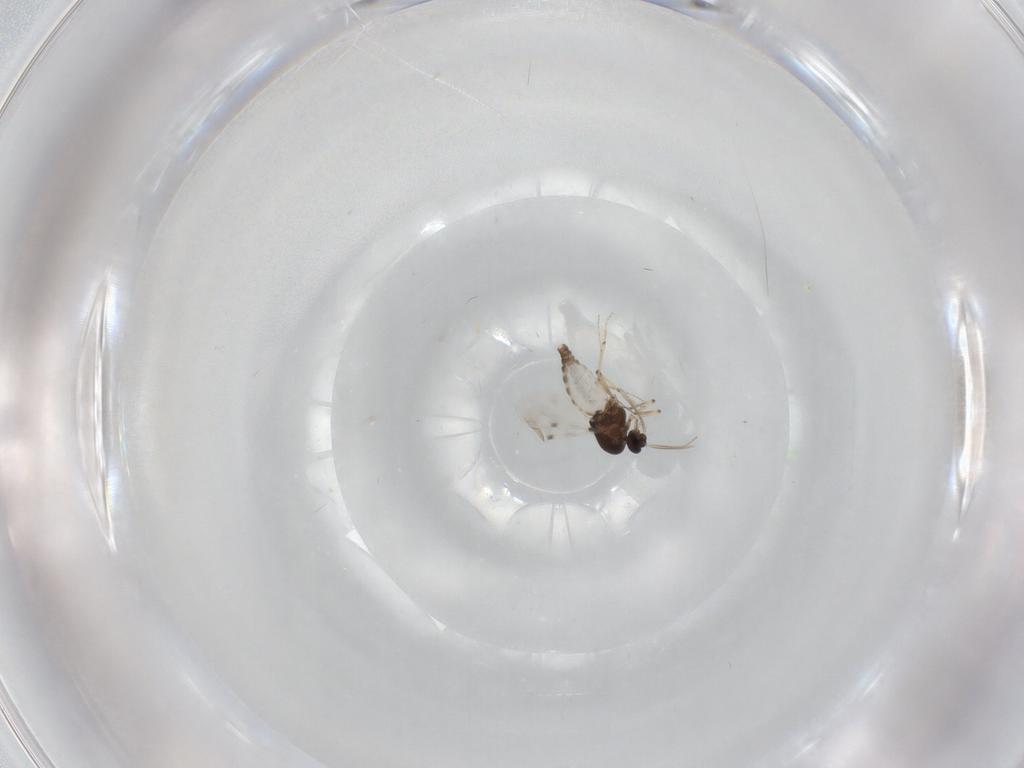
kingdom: Animalia
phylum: Arthropoda
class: Insecta
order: Diptera
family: Phoridae
